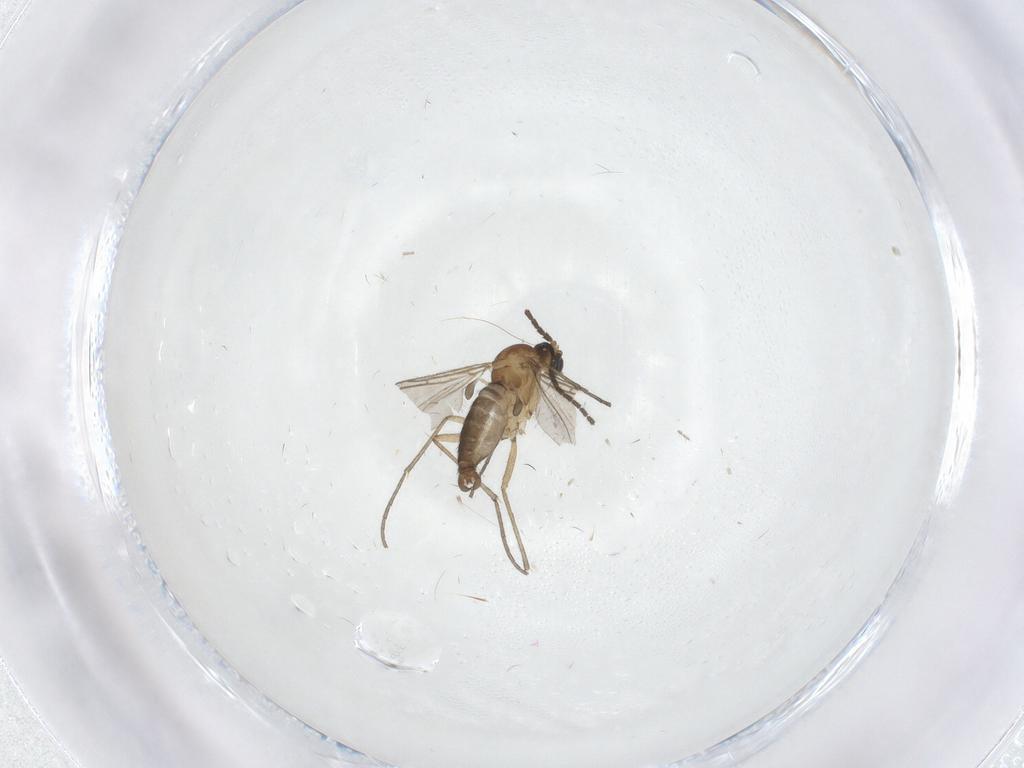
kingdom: Animalia
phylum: Arthropoda
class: Insecta
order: Diptera
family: Sciaridae
